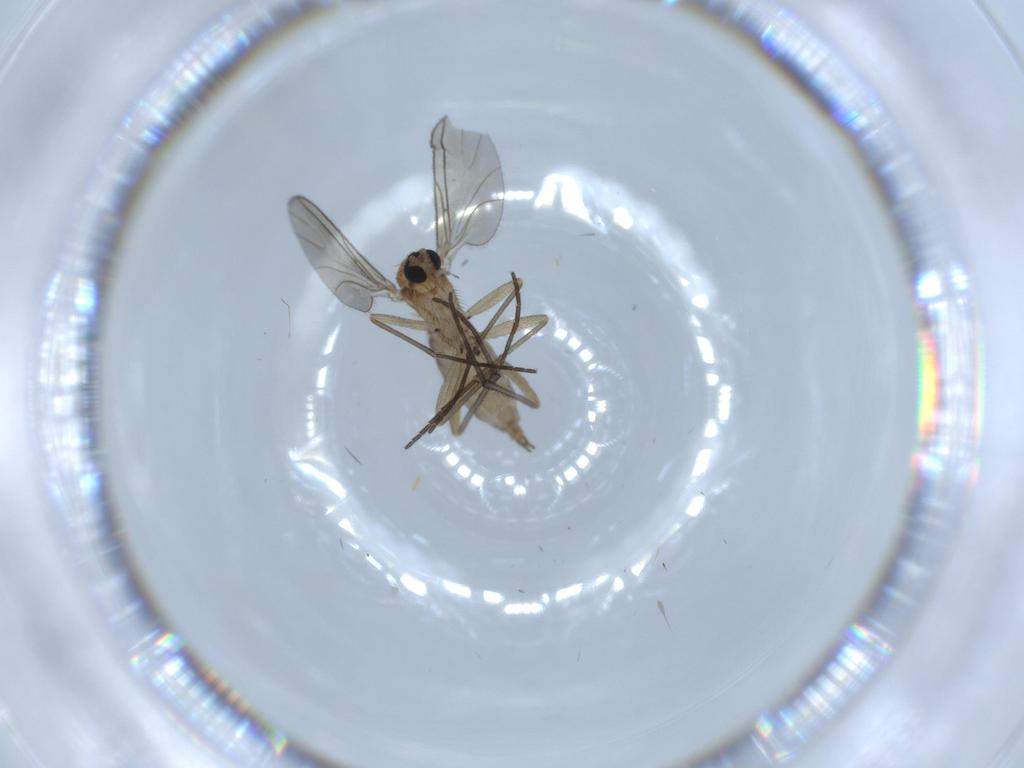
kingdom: Animalia
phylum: Arthropoda
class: Insecta
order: Diptera
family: Sciaridae
